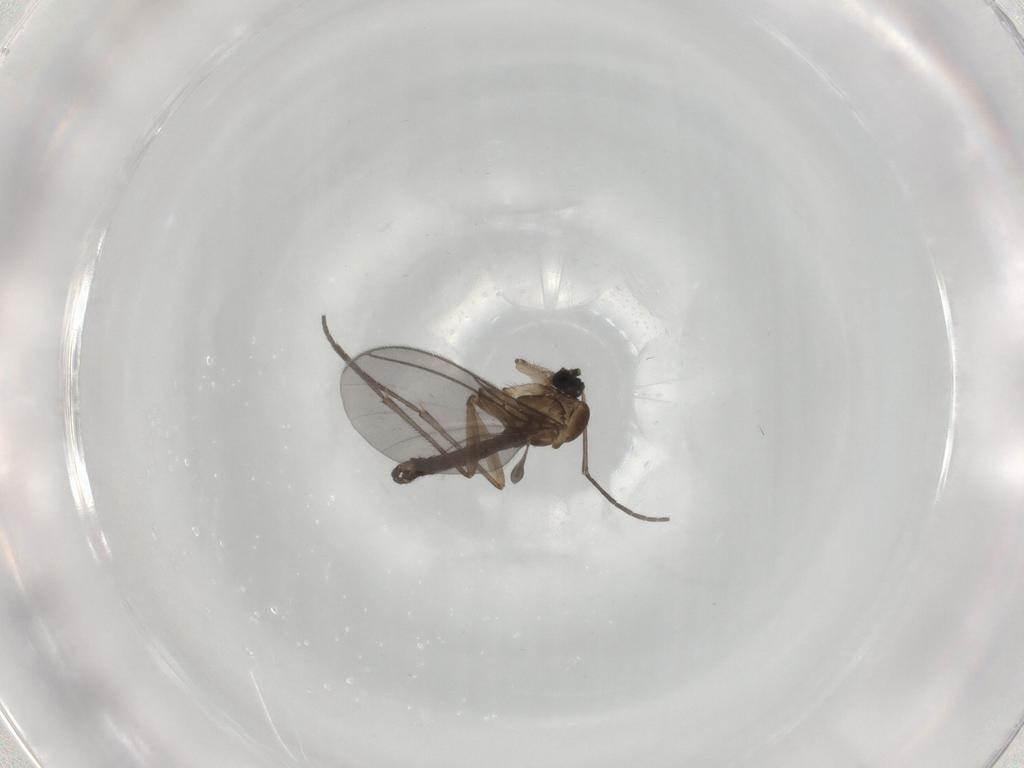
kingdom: Animalia
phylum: Arthropoda
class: Insecta
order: Diptera
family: Sciaridae
